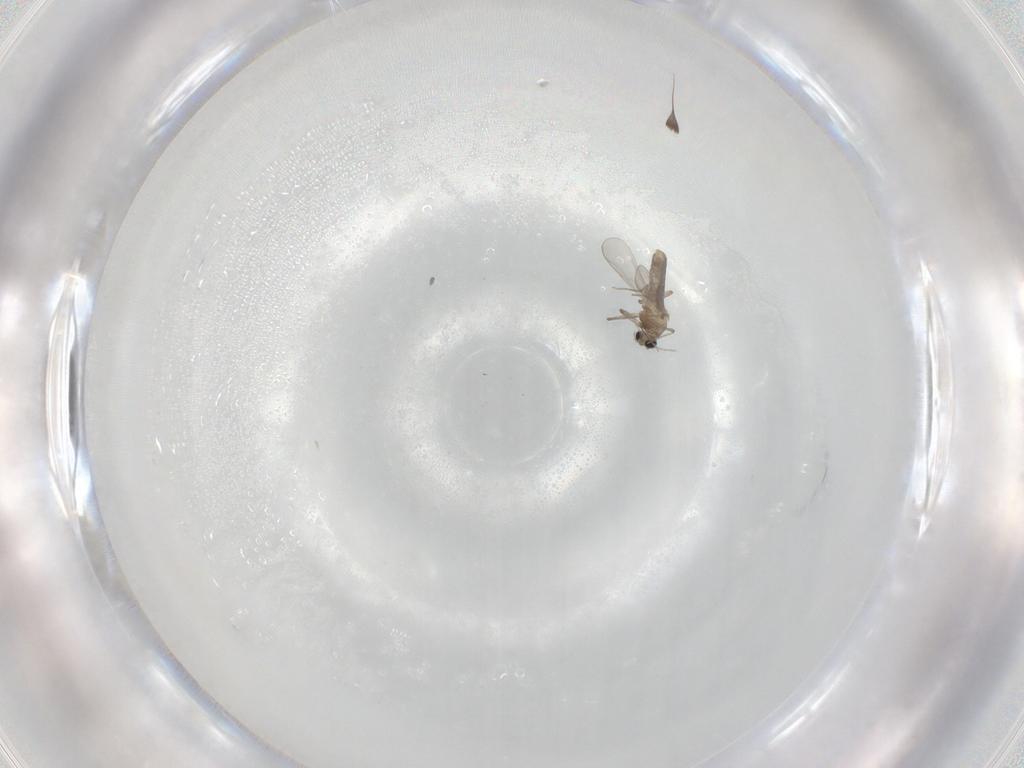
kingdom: Animalia
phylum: Arthropoda
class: Insecta
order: Diptera
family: Chironomidae
